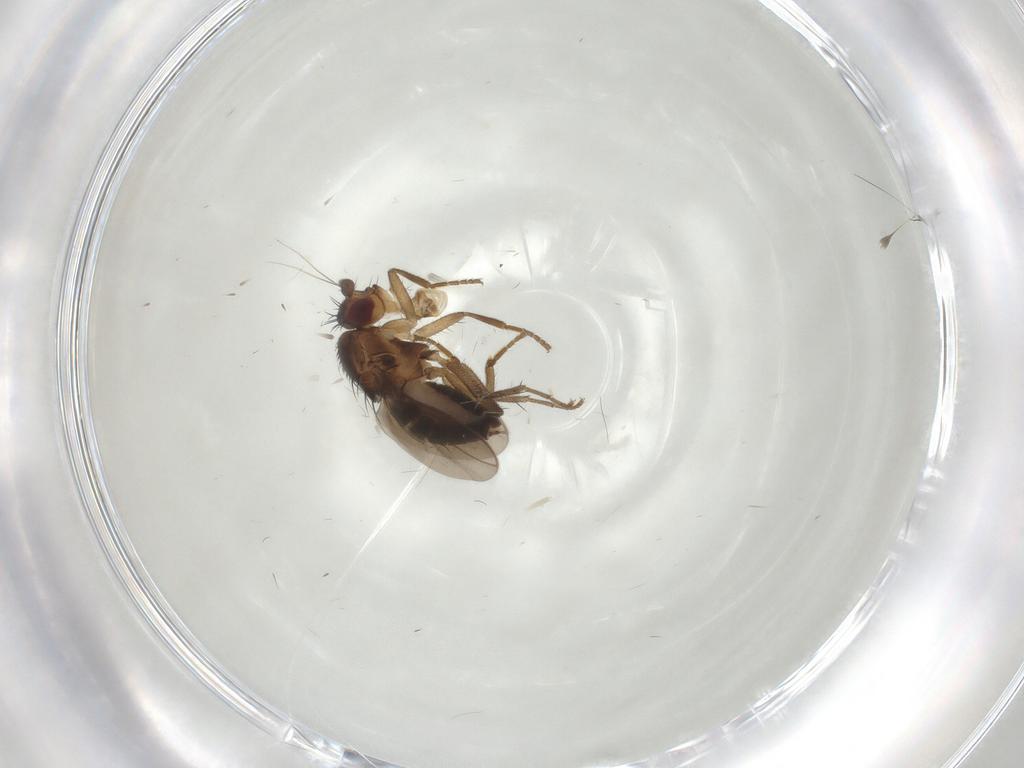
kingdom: Animalia
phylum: Arthropoda
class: Insecta
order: Diptera
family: Sphaeroceridae
